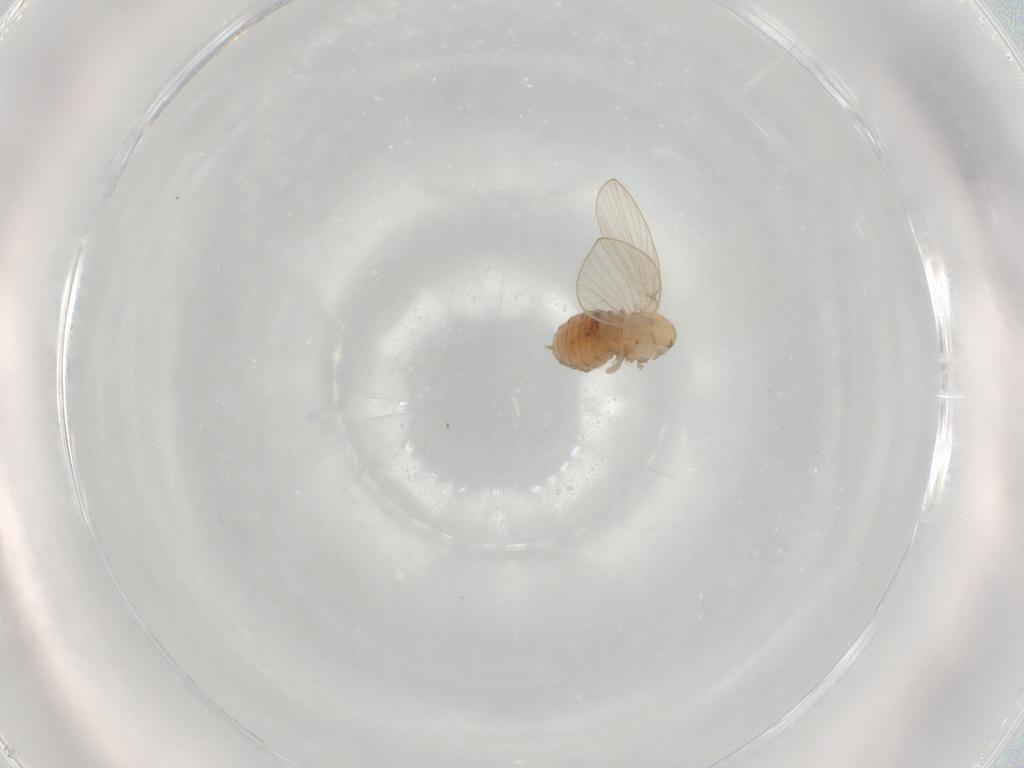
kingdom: Animalia
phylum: Arthropoda
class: Insecta
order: Diptera
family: Psychodidae
